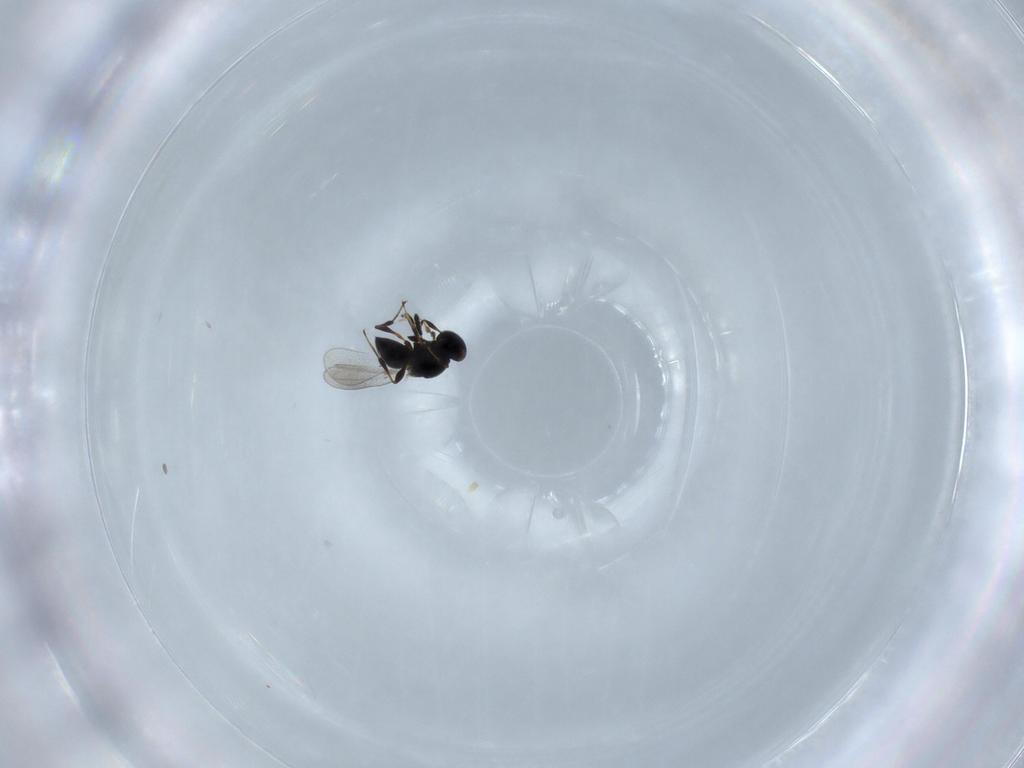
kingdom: Animalia
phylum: Arthropoda
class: Insecta
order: Hymenoptera
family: Platygastridae
